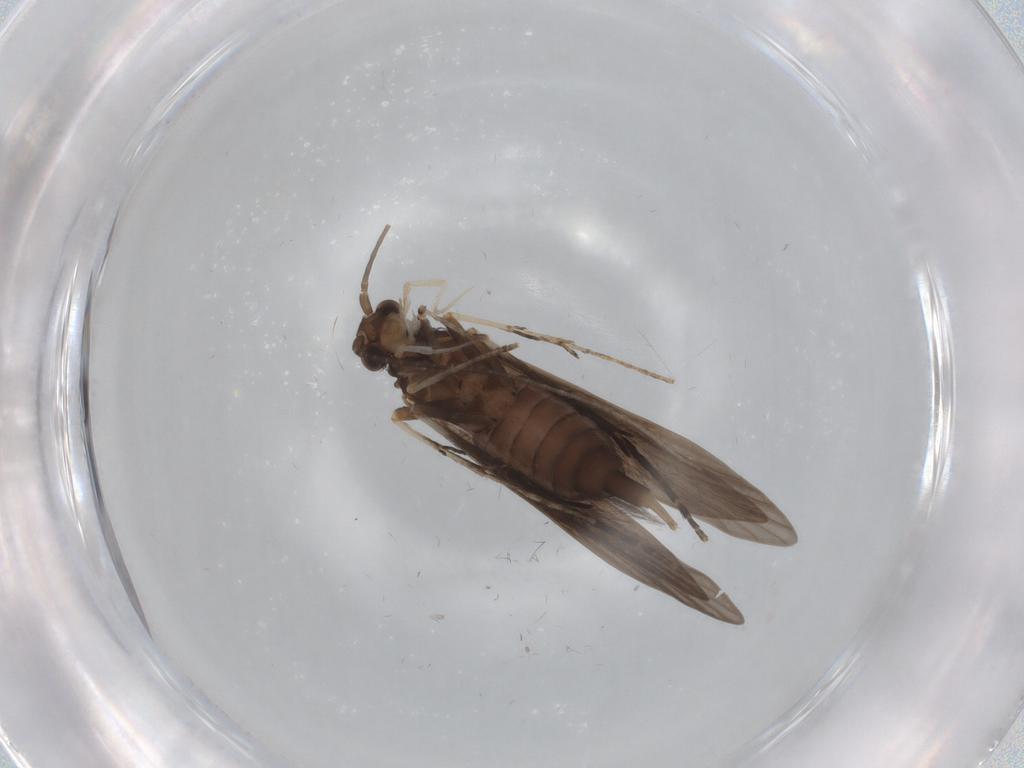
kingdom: Animalia
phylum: Arthropoda
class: Insecta
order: Trichoptera
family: Xiphocentronidae
